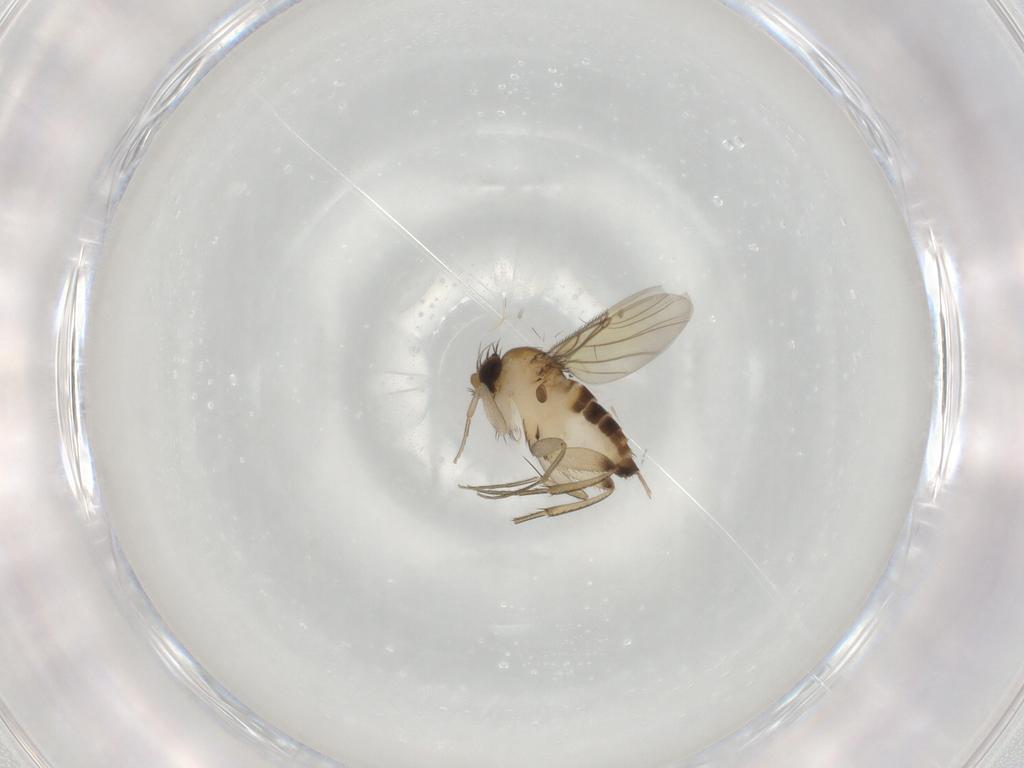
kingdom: Animalia
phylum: Arthropoda
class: Insecta
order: Diptera
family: Phoridae
